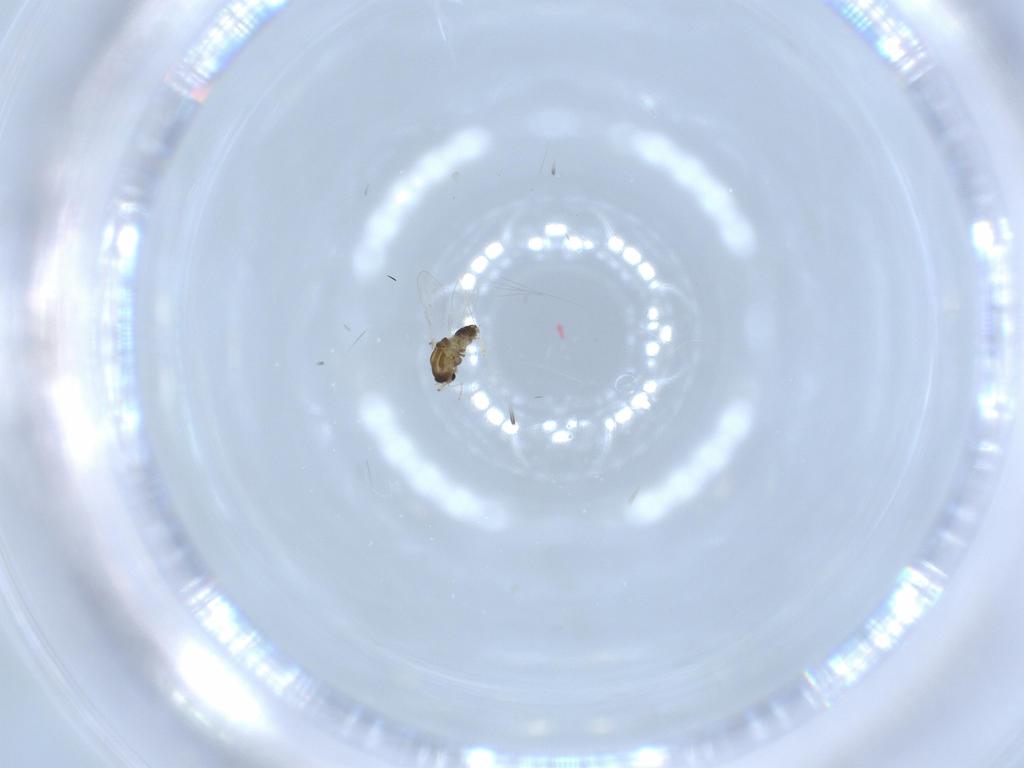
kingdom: Animalia
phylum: Arthropoda
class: Insecta
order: Diptera
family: Chironomidae
